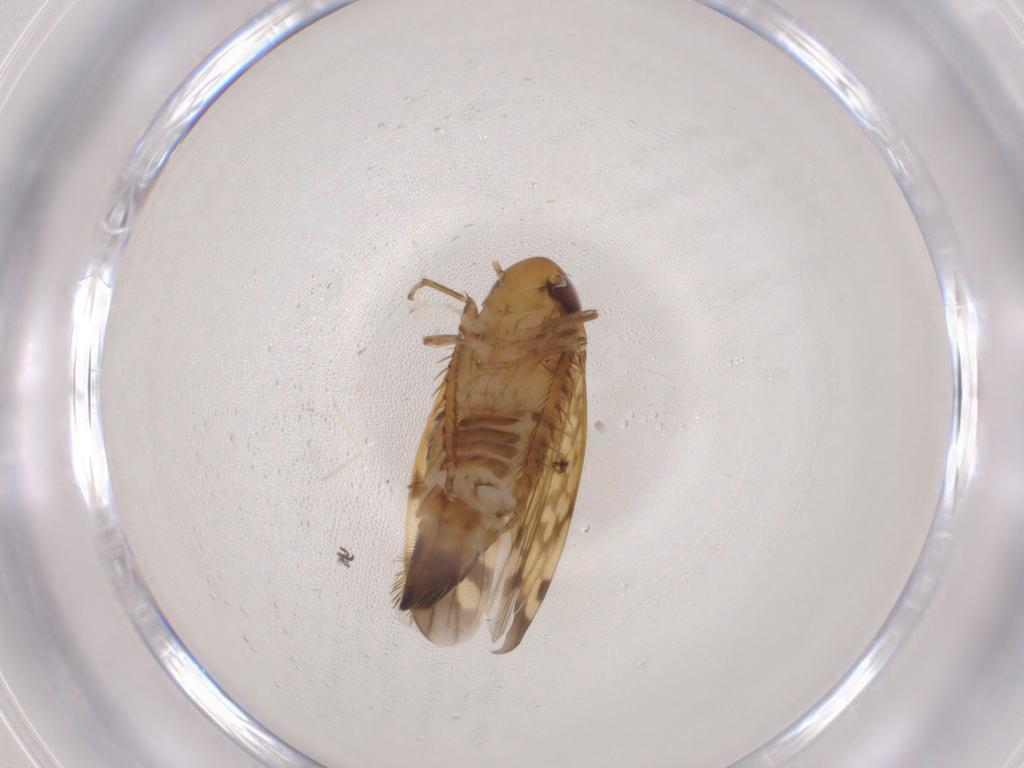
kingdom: Animalia
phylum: Arthropoda
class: Insecta
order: Hemiptera
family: Cicadellidae
